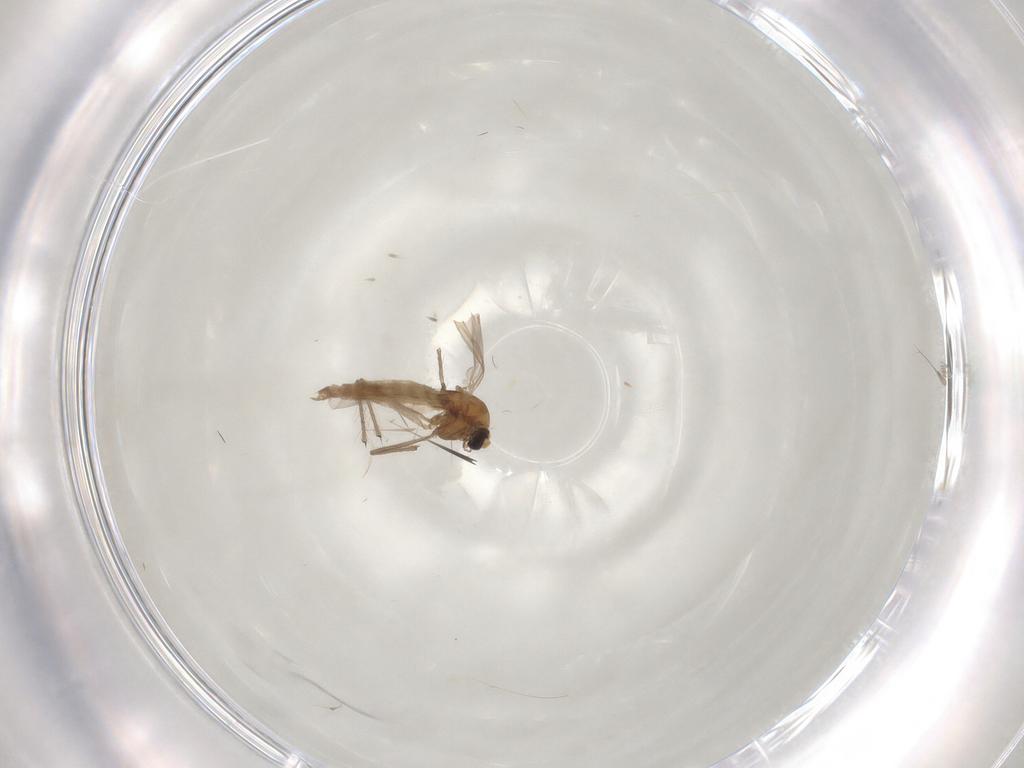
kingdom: Animalia
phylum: Arthropoda
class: Insecta
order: Diptera
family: Chironomidae
